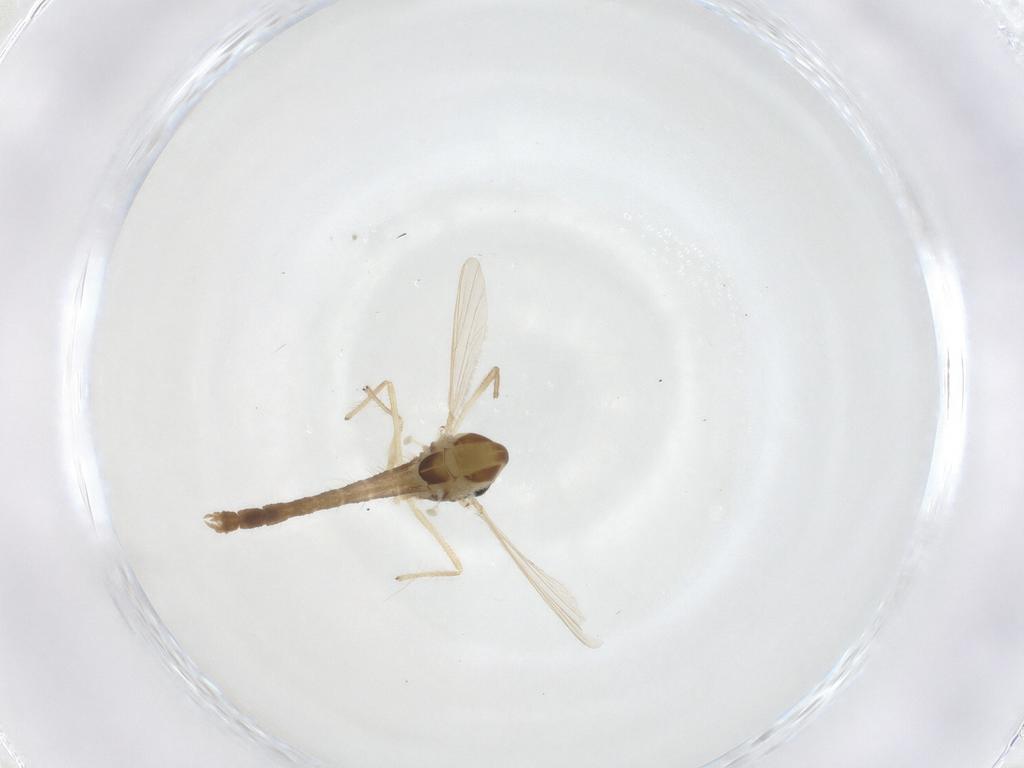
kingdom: Animalia
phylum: Arthropoda
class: Insecta
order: Diptera
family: Chironomidae
